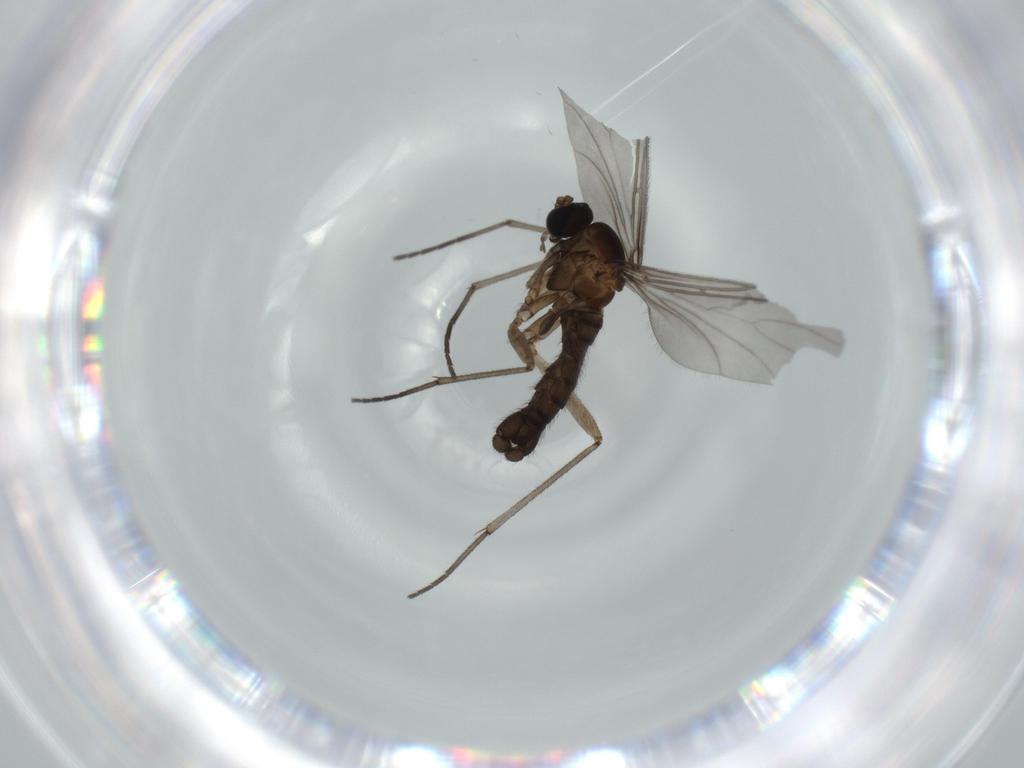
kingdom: Animalia
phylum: Arthropoda
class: Insecta
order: Diptera
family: Sciaridae
